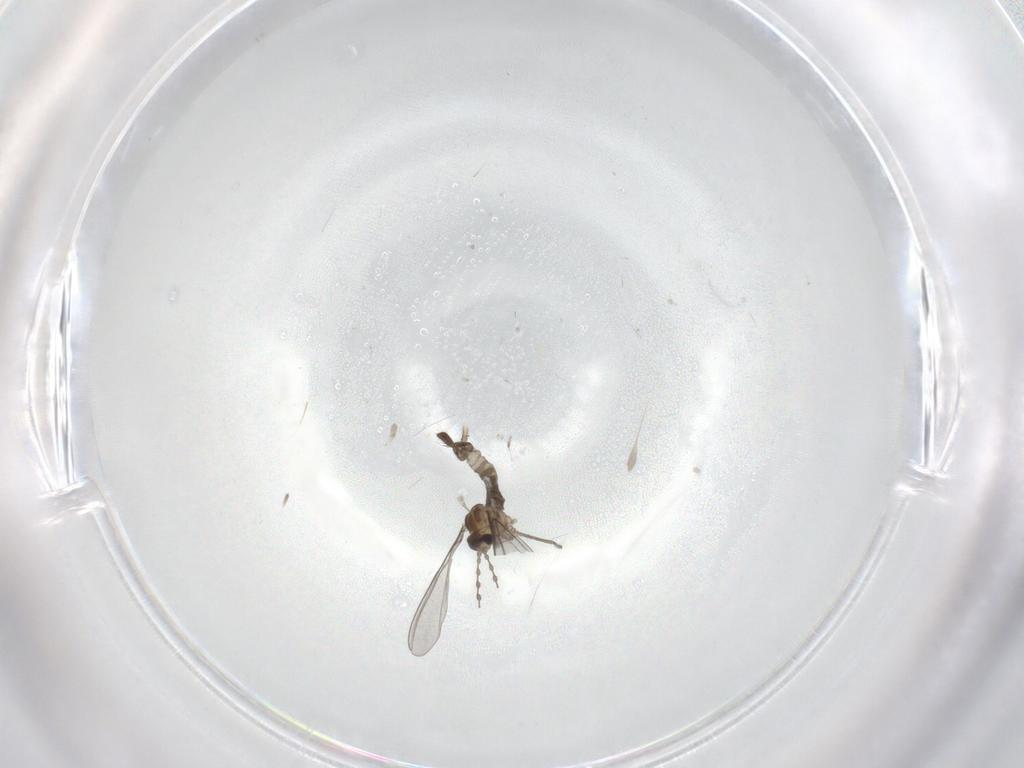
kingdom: Animalia
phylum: Arthropoda
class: Insecta
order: Diptera
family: Cecidomyiidae
